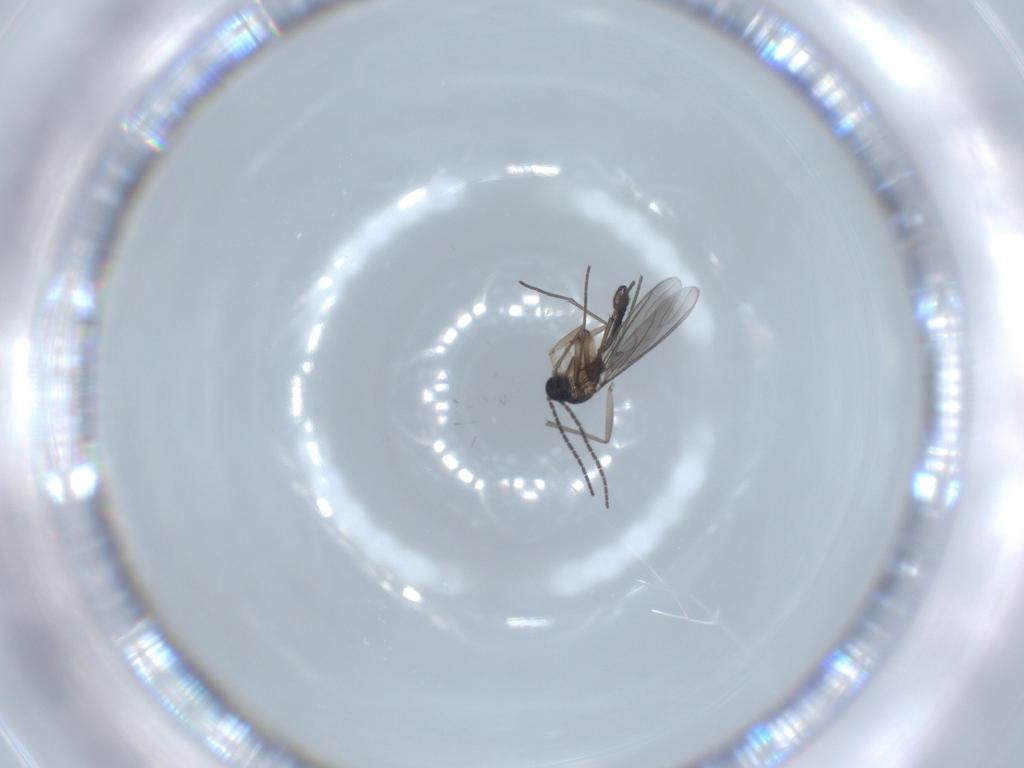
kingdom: Animalia
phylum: Arthropoda
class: Insecta
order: Diptera
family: Sciaridae
